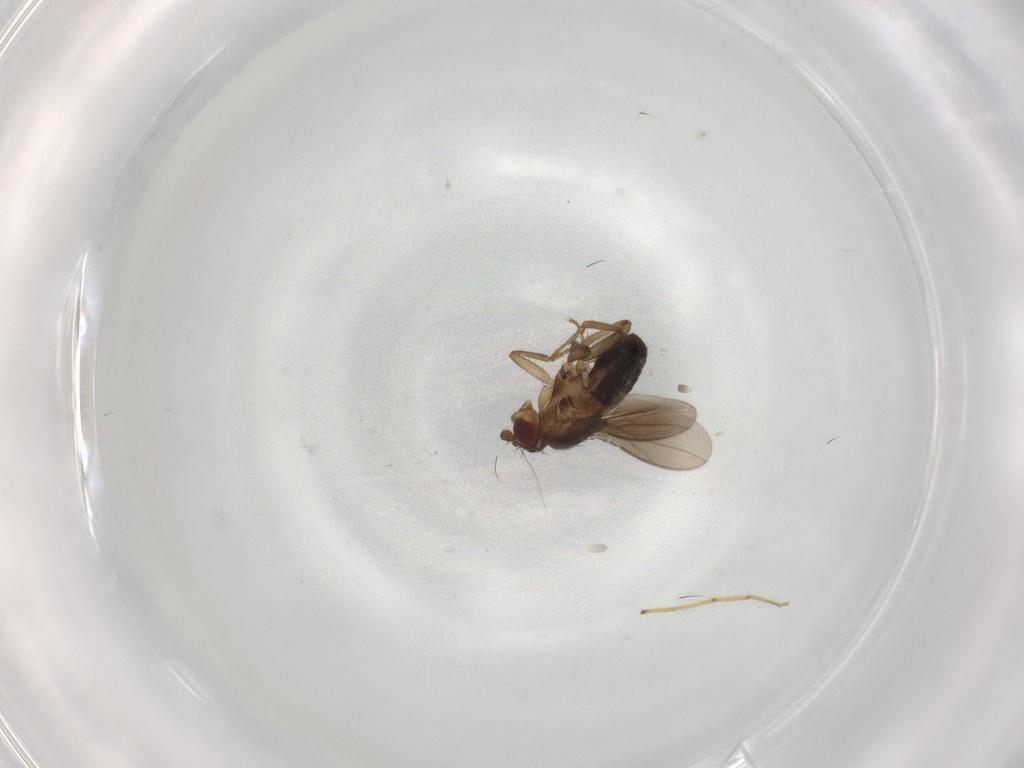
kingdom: Animalia
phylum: Arthropoda
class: Insecta
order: Diptera
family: Sphaeroceridae
